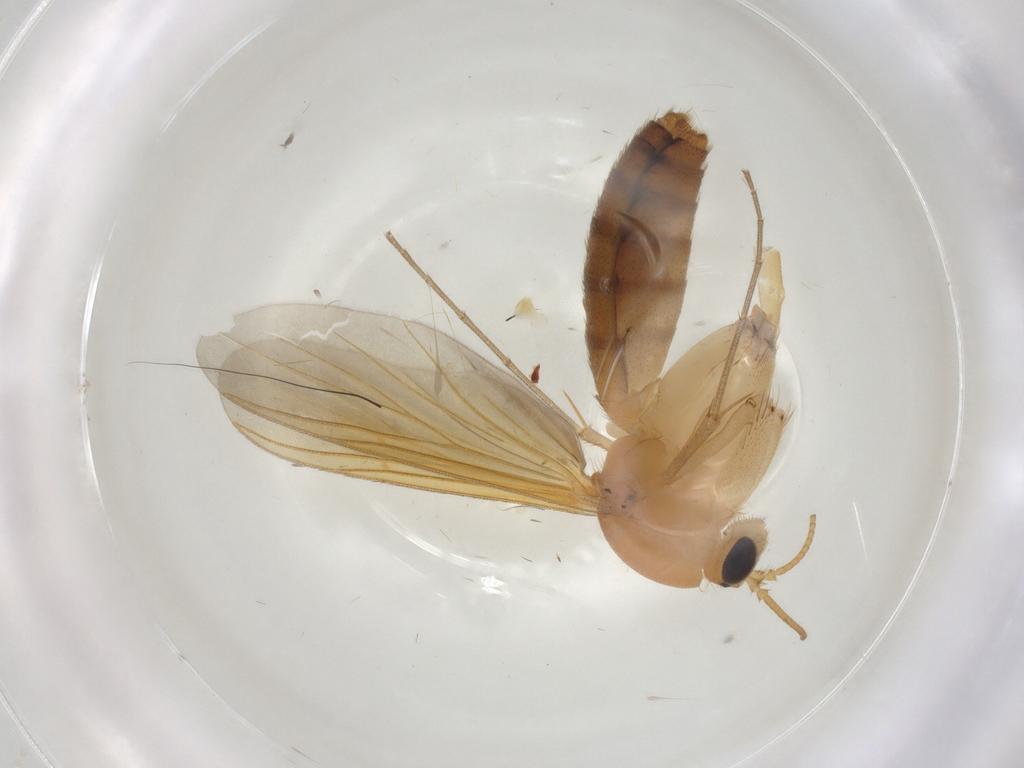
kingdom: Animalia
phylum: Arthropoda
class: Insecta
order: Diptera
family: Mycetophilidae
